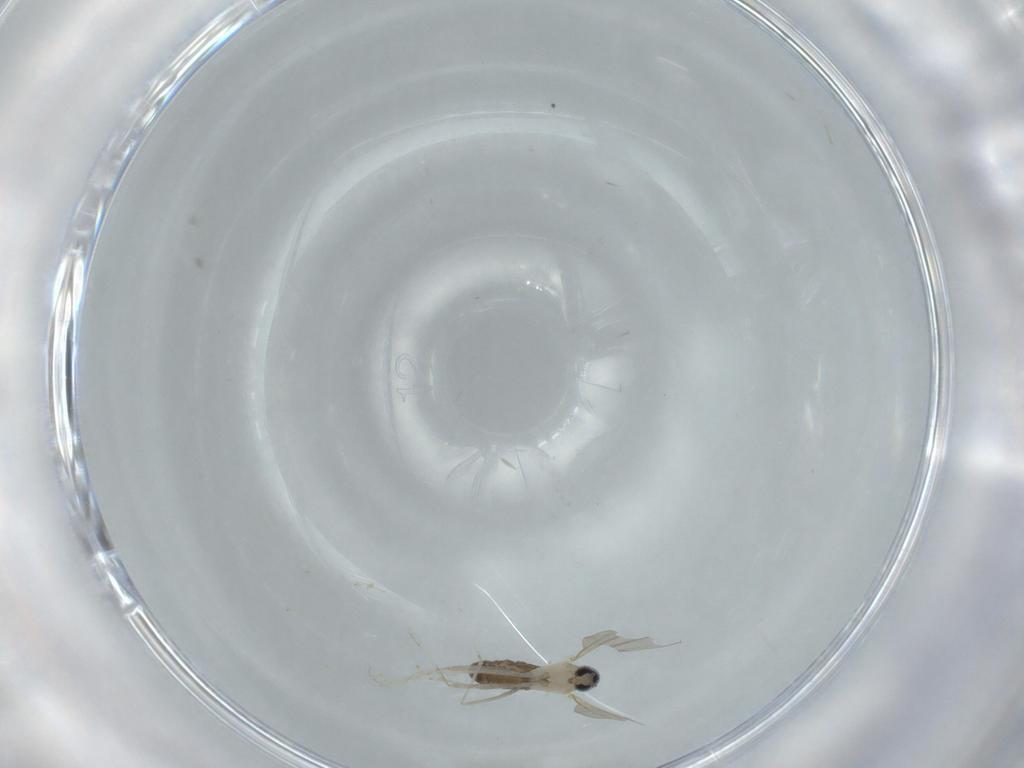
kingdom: Animalia
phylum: Arthropoda
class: Insecta
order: Diptera
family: Cecidomyiidae
